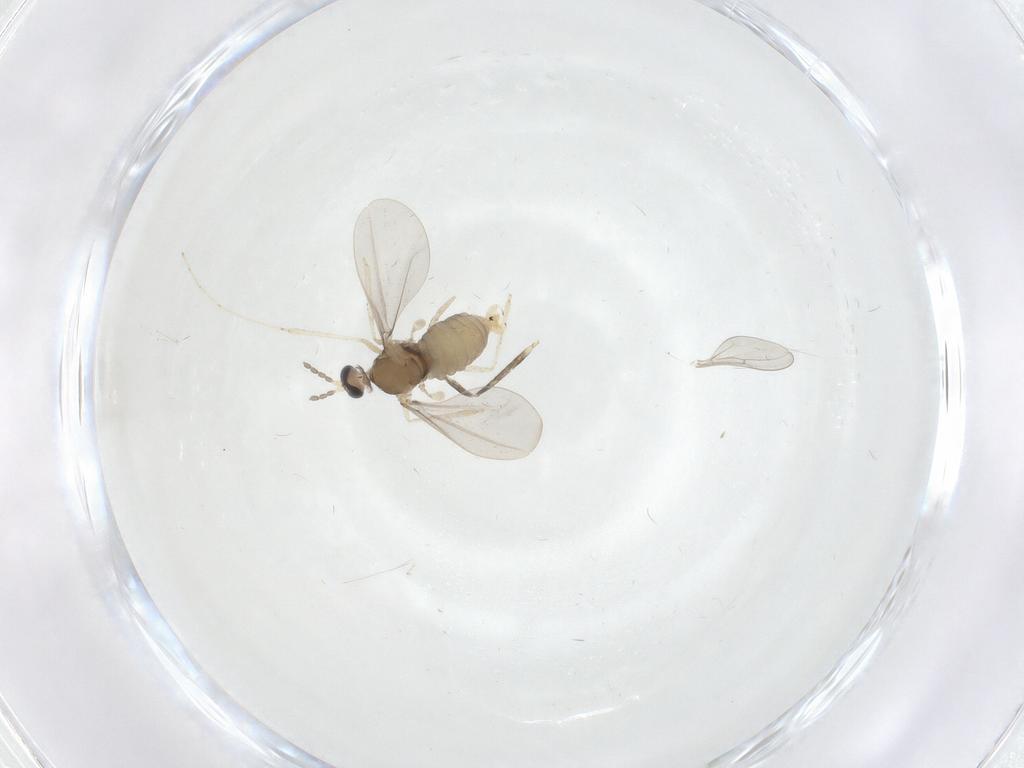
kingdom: Animalia
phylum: Arthropoda
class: Insecta
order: Diptera
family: Cecidomyiidae
